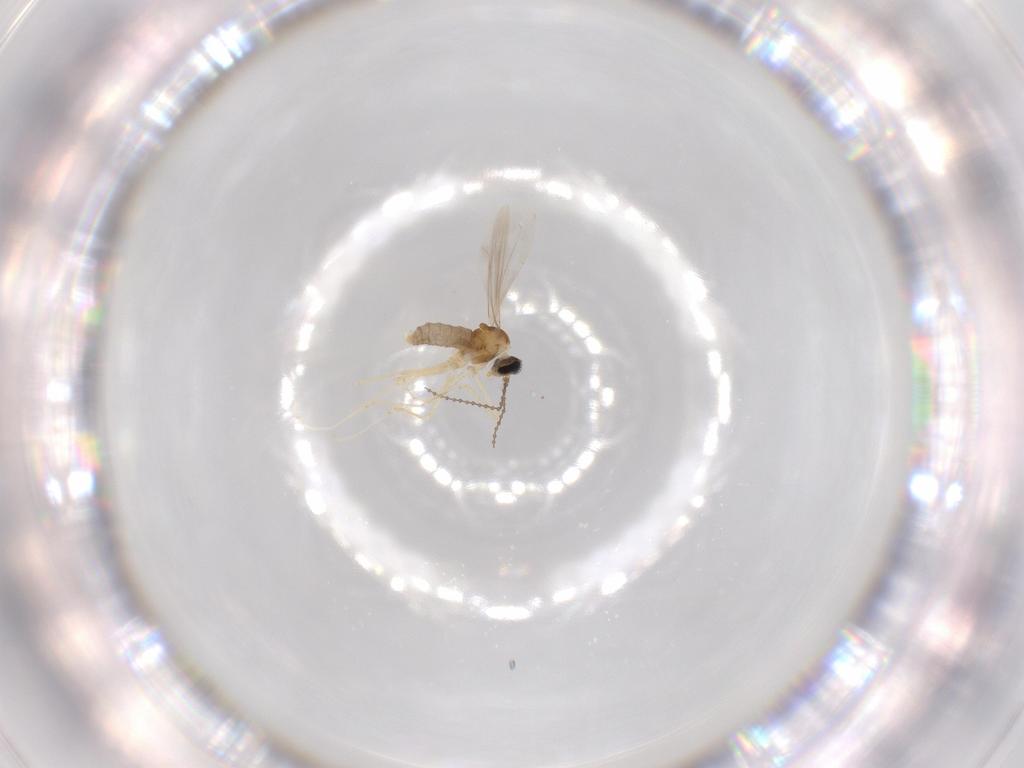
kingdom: Animalia
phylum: Arthropoda
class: Insecta
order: Diptera
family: Cecidomyiidae
